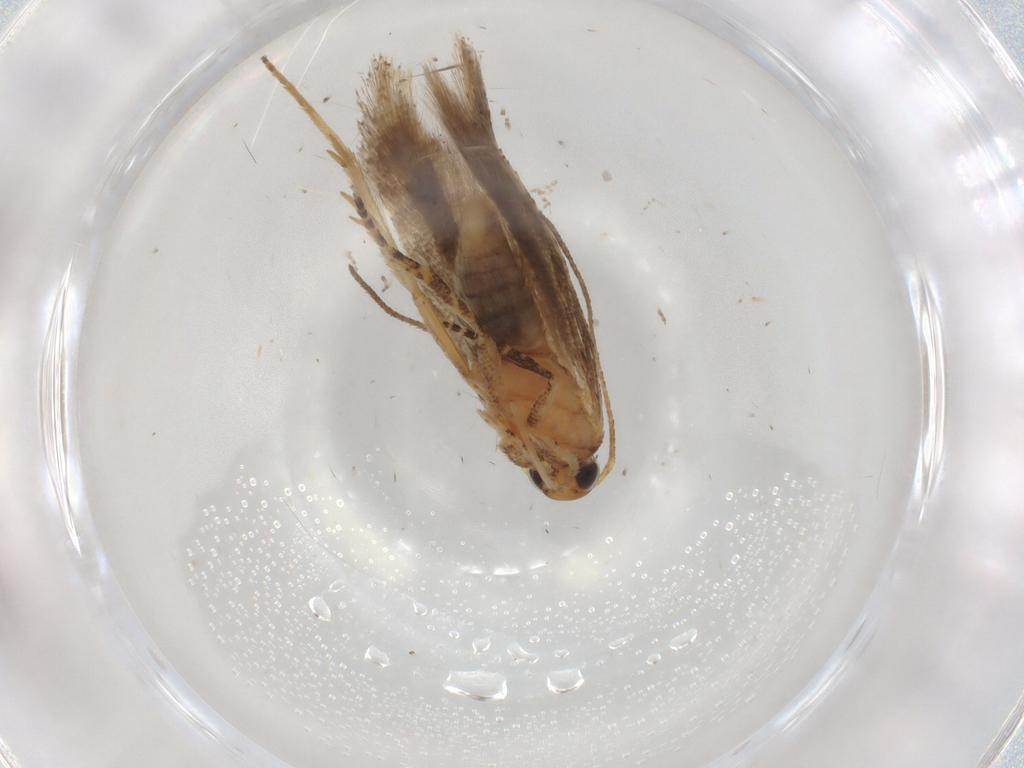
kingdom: Animalia
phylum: Arthropoda
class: Insecta
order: Lepidoptera
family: Gelechiidae
